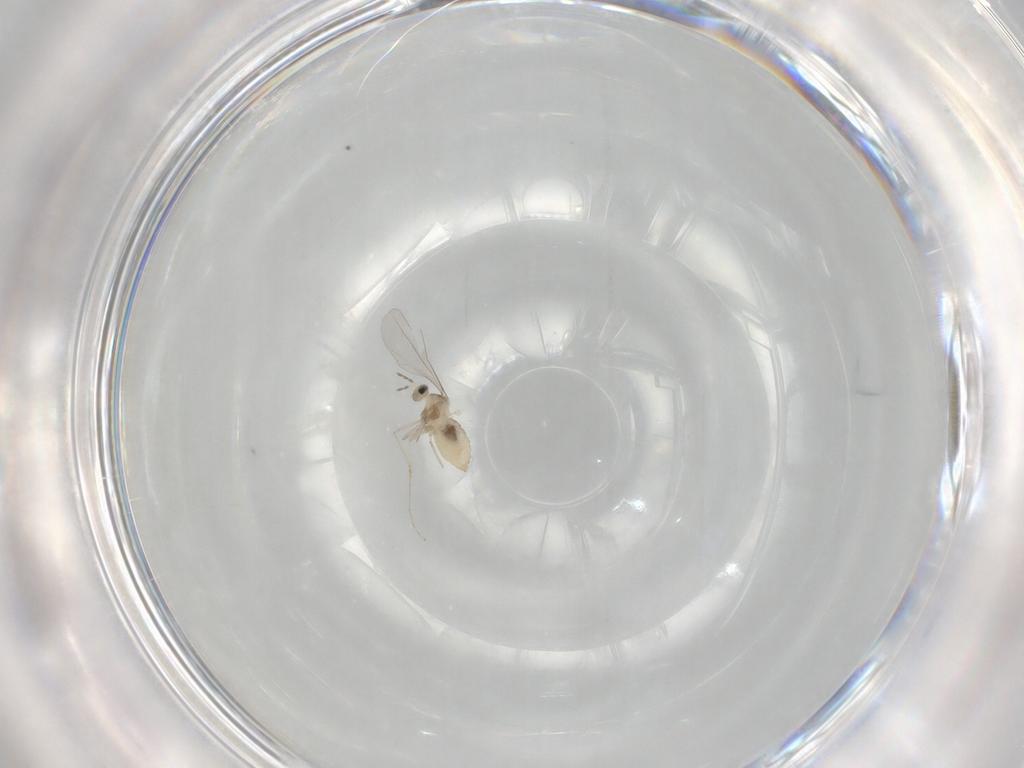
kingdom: Animalia
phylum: Arthropoda
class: Insecta
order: Diptera
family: Cecidomyiidae
